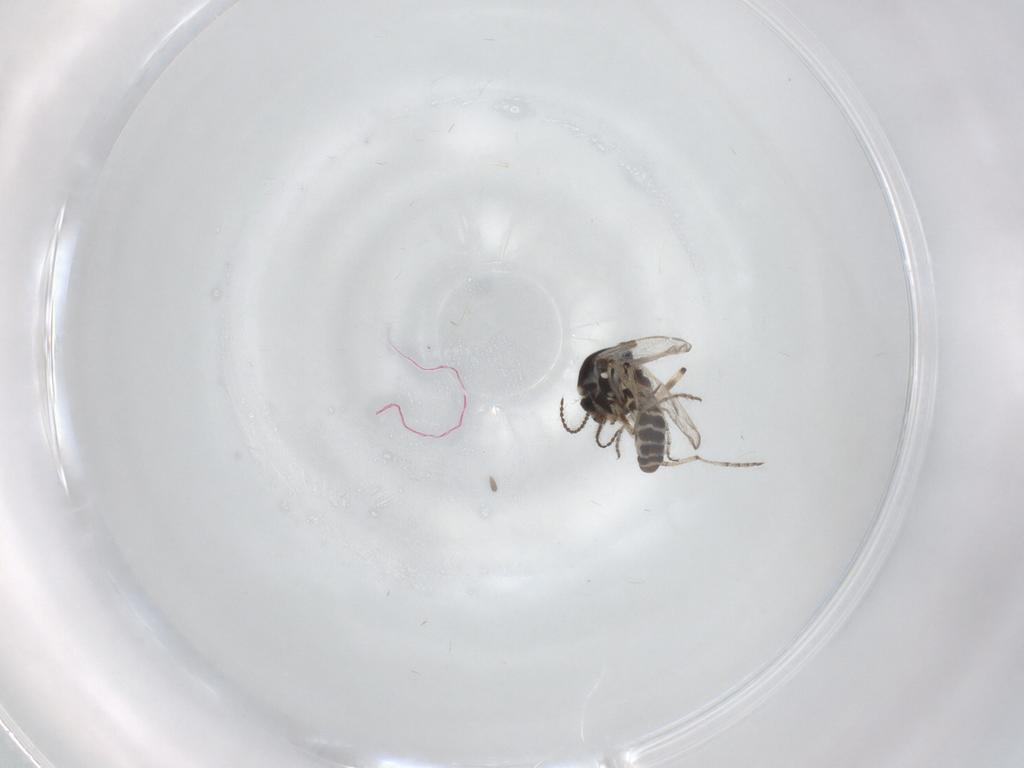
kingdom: Animalia
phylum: Arthropoda
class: Insecta
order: Diptera
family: Ceratopogonidae
